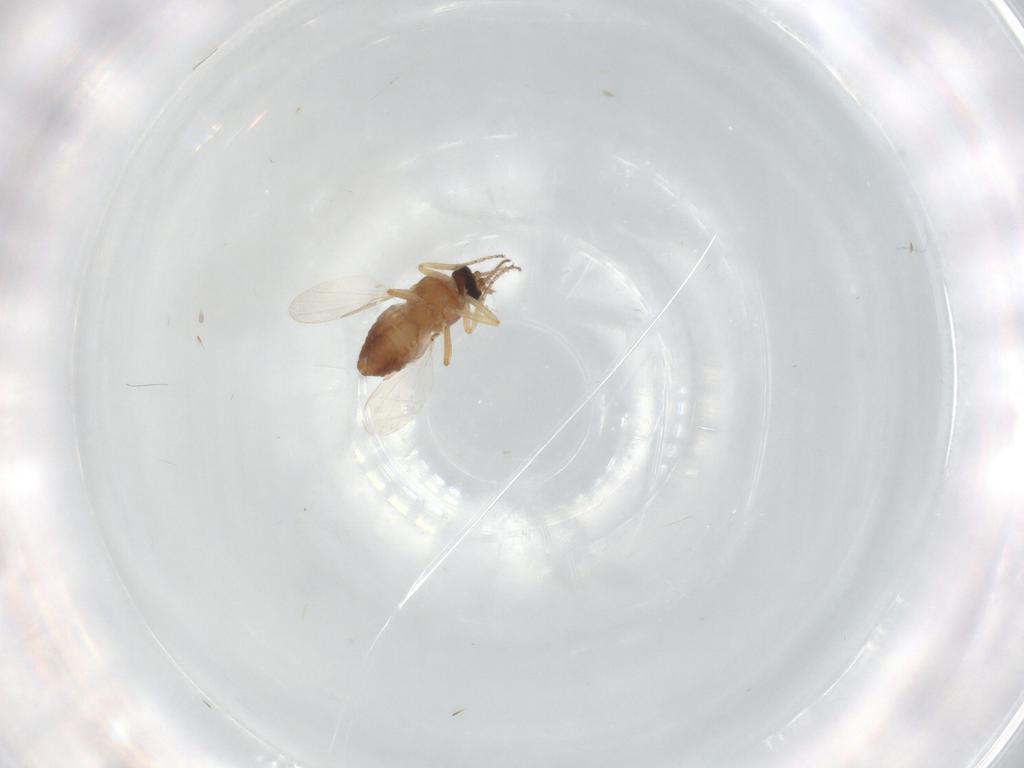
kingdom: Animalia
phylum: Arthropoda
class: Insecta
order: Diptera
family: Ceratopogonidae
